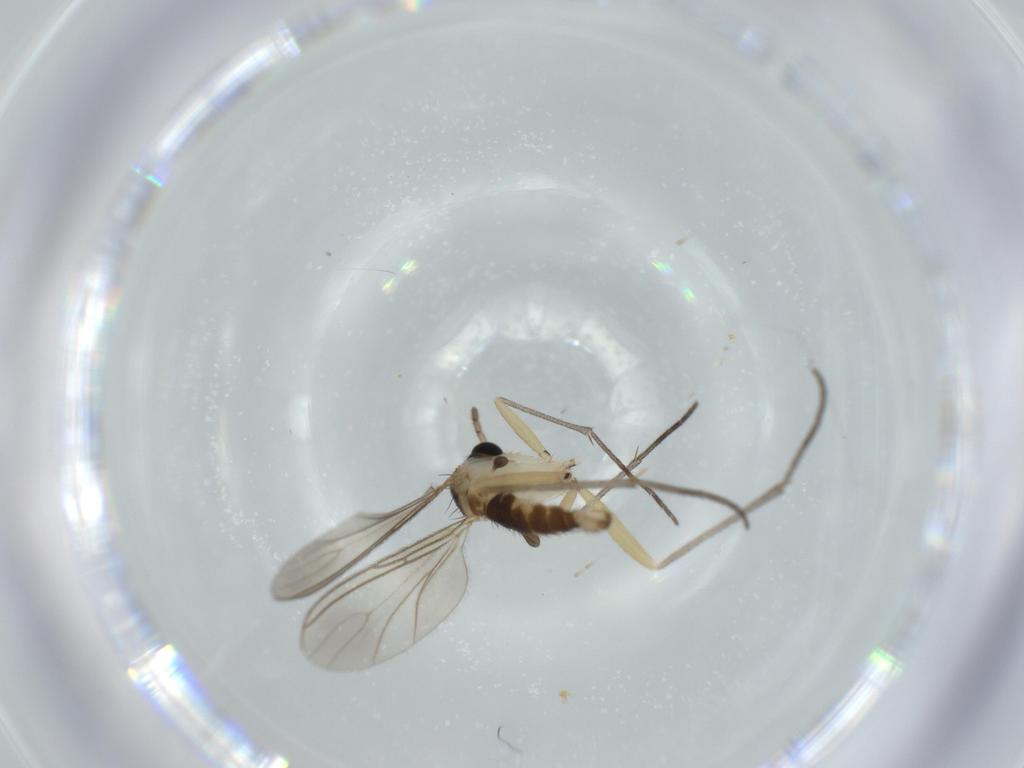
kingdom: Animalia
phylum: Arthropoda
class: Insecta
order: Diptera
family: Sciaridae
